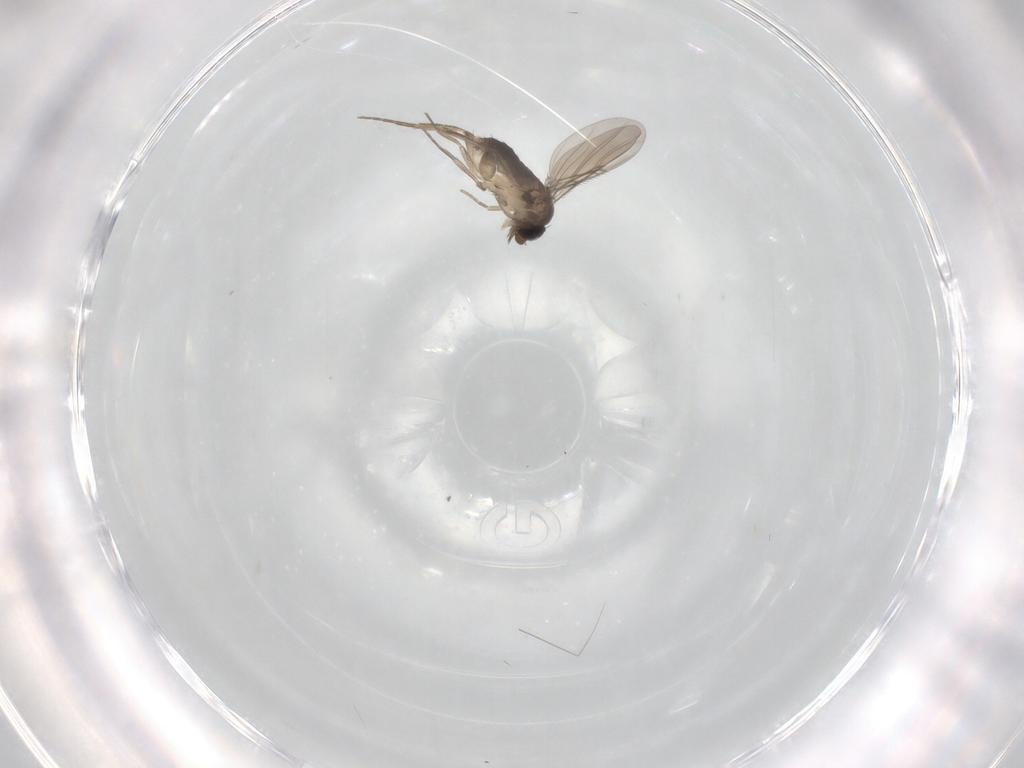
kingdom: Animalia
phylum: Arthropoda
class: Insecta
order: Diptera
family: Phoridae
